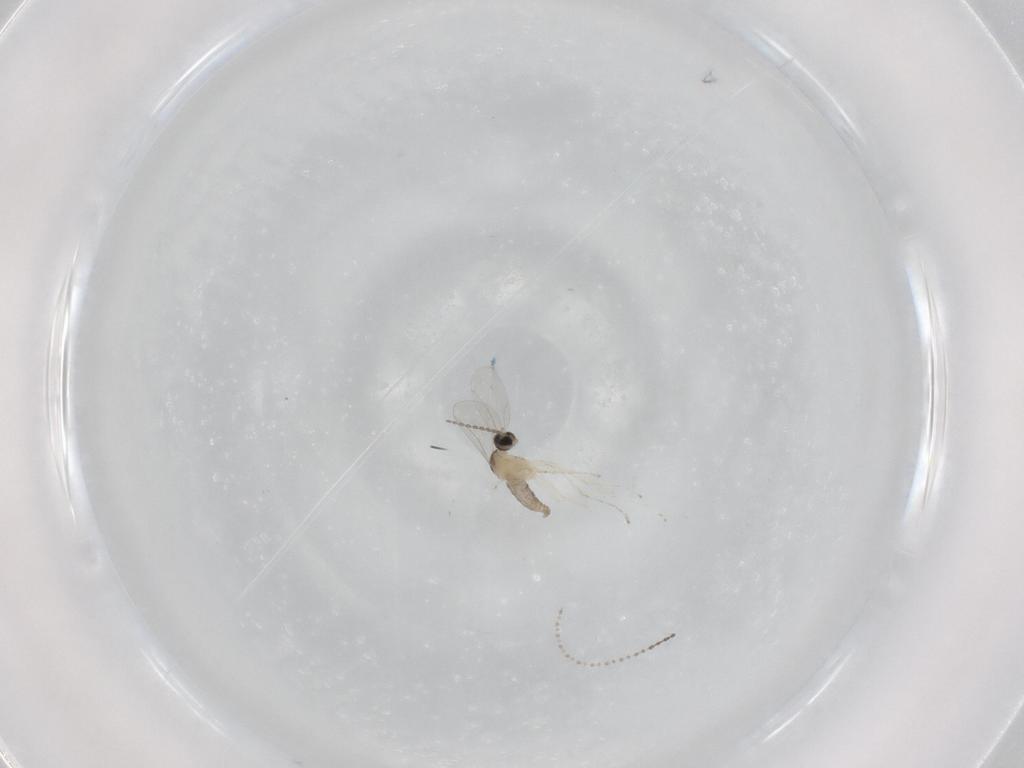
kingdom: Animalia
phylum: Arthropoda
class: Insecta
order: Diptera
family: Cecidomyiidae
